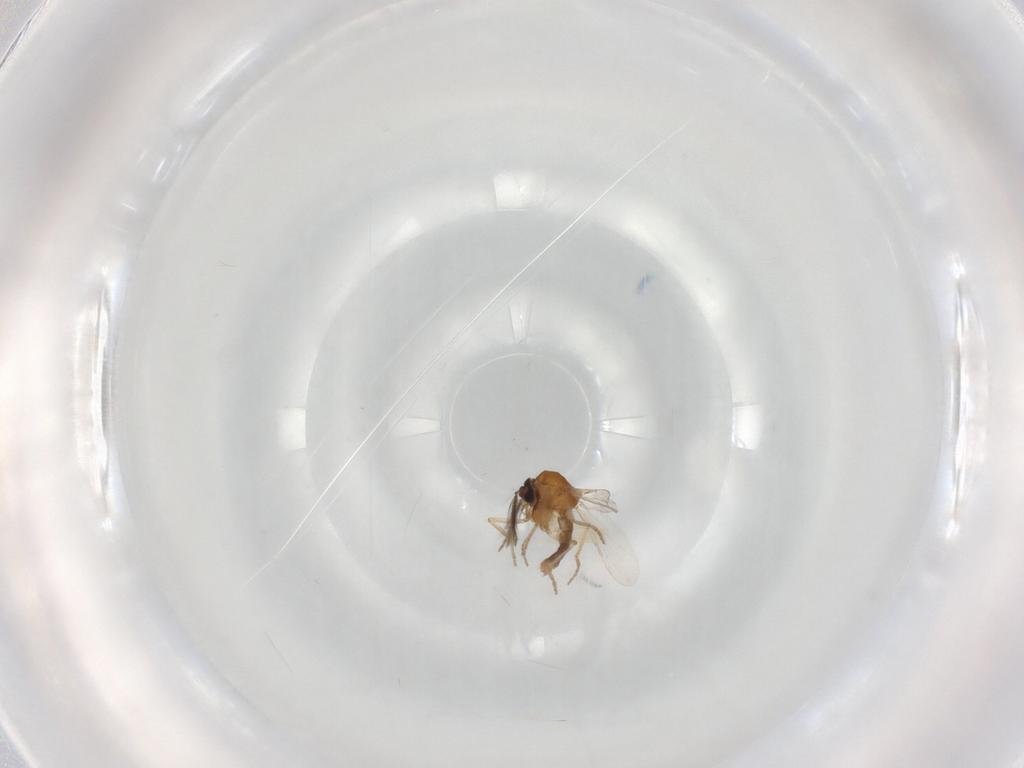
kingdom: Animalia
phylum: Arthropoda
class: Insecta
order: Diptera
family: Ceratopogonidae
